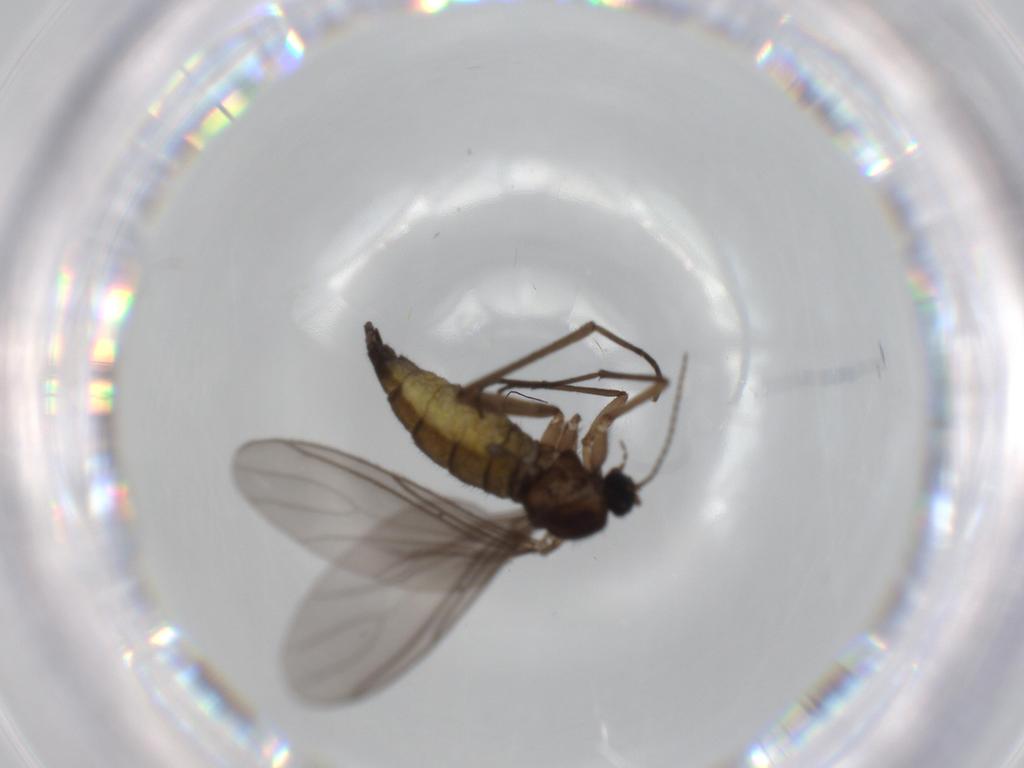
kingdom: Animalia
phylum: Arthropoda
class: Insecta
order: Diptera
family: Sciaridae
